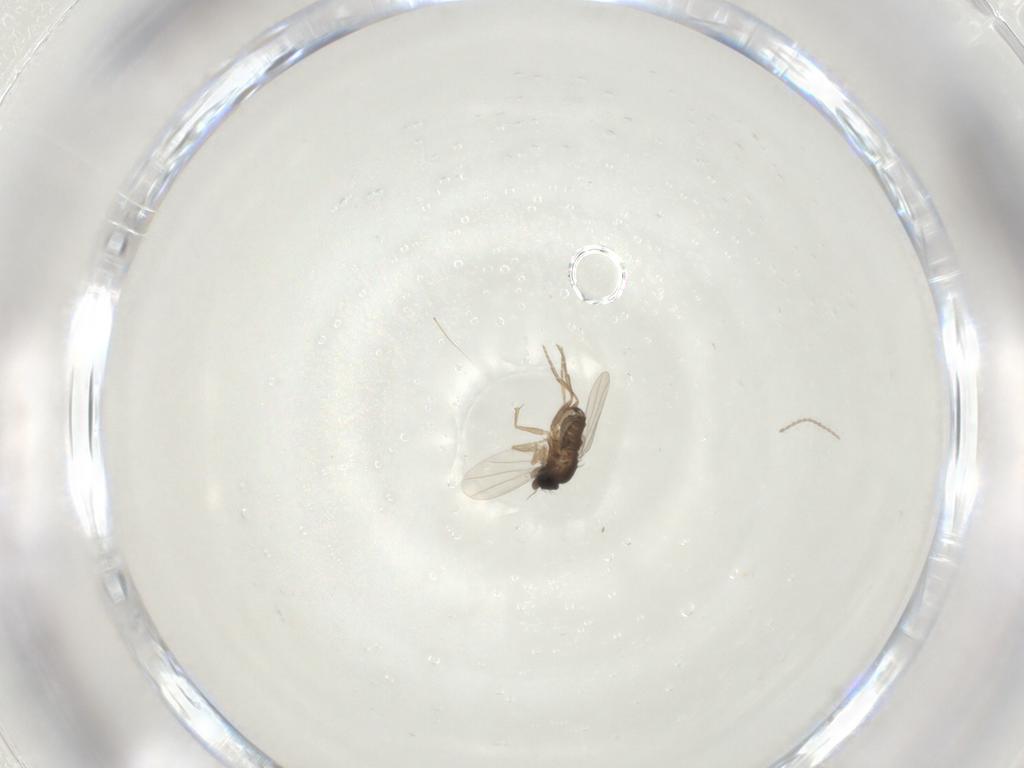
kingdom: Animalia
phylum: Arthropoda
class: Insecta
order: Diptera
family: Phoridae
